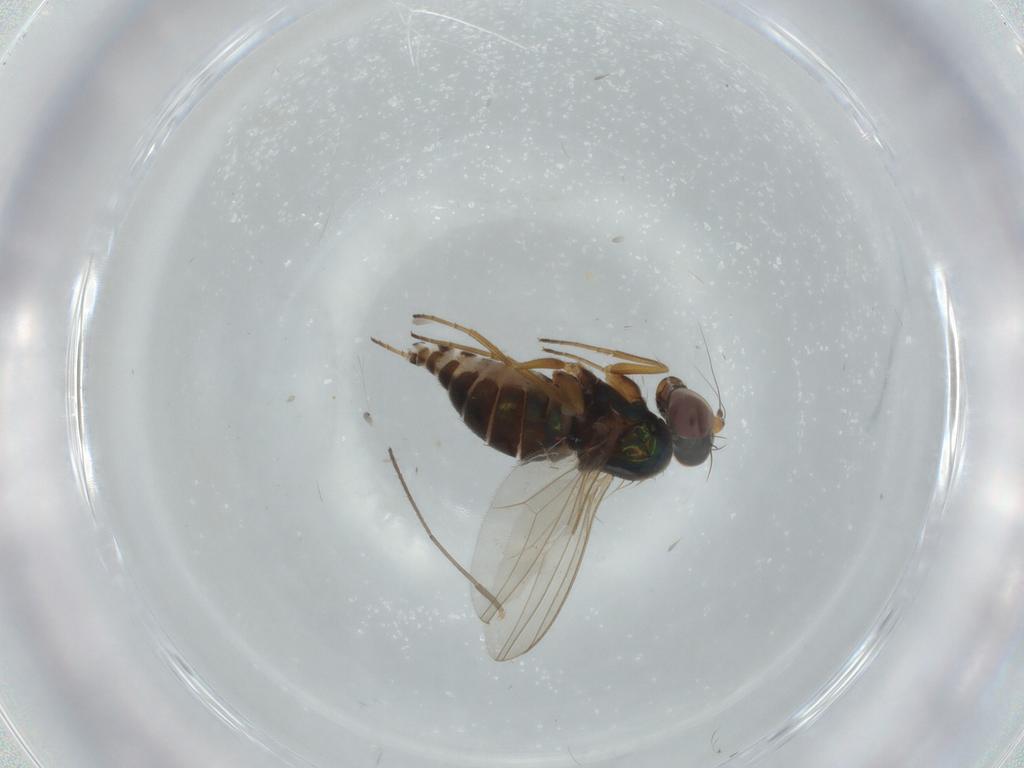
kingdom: Animalia
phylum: Arthropoda
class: Insecta
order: Diptera
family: Chironomidae
